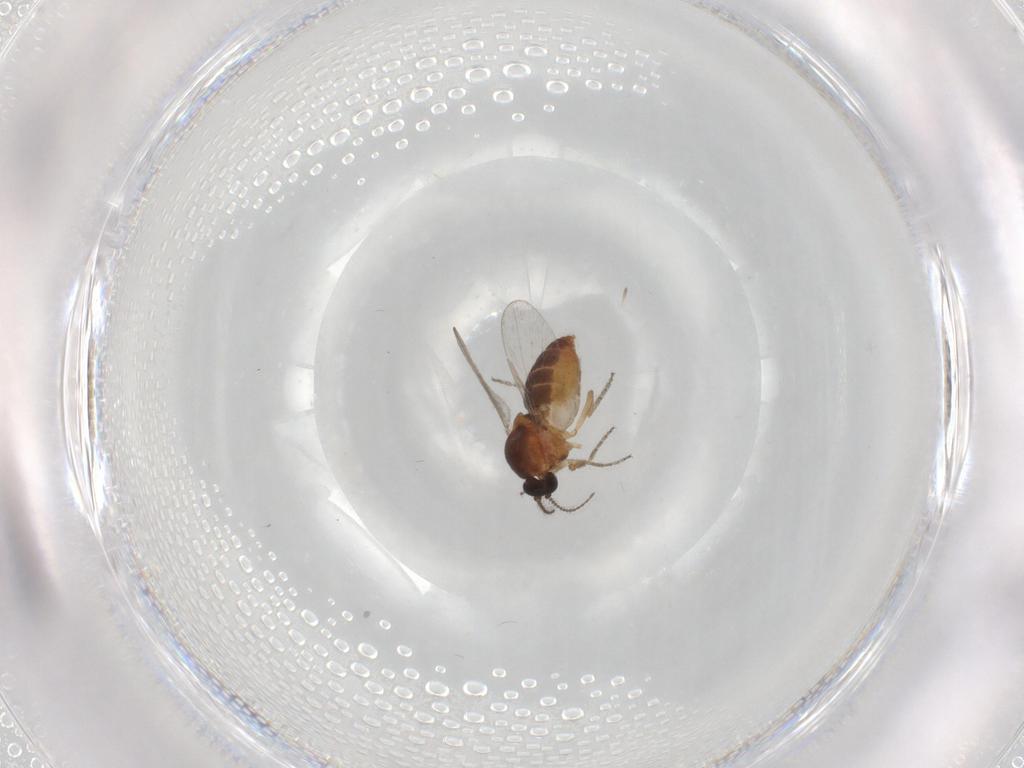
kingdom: Animalia
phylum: Arthropoda
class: Insecta
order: Diptera
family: Ceratopogonidae
